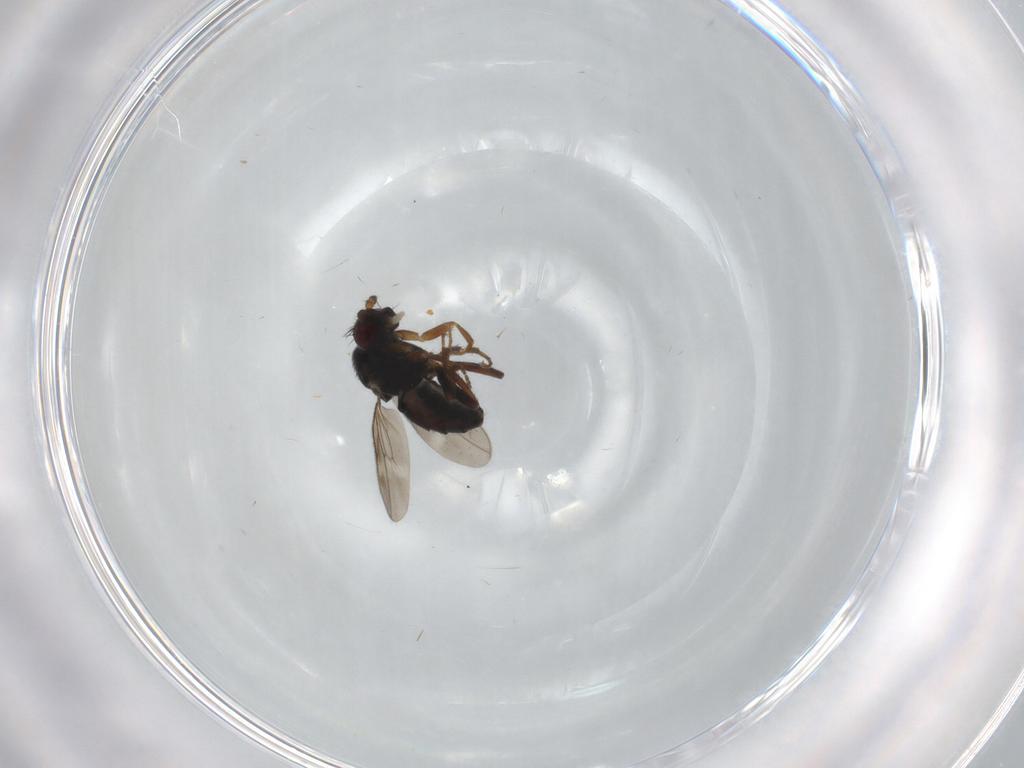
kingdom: Animalia
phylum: Arthropoda
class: Insecta
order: Diptera
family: Sphaeroceridae
